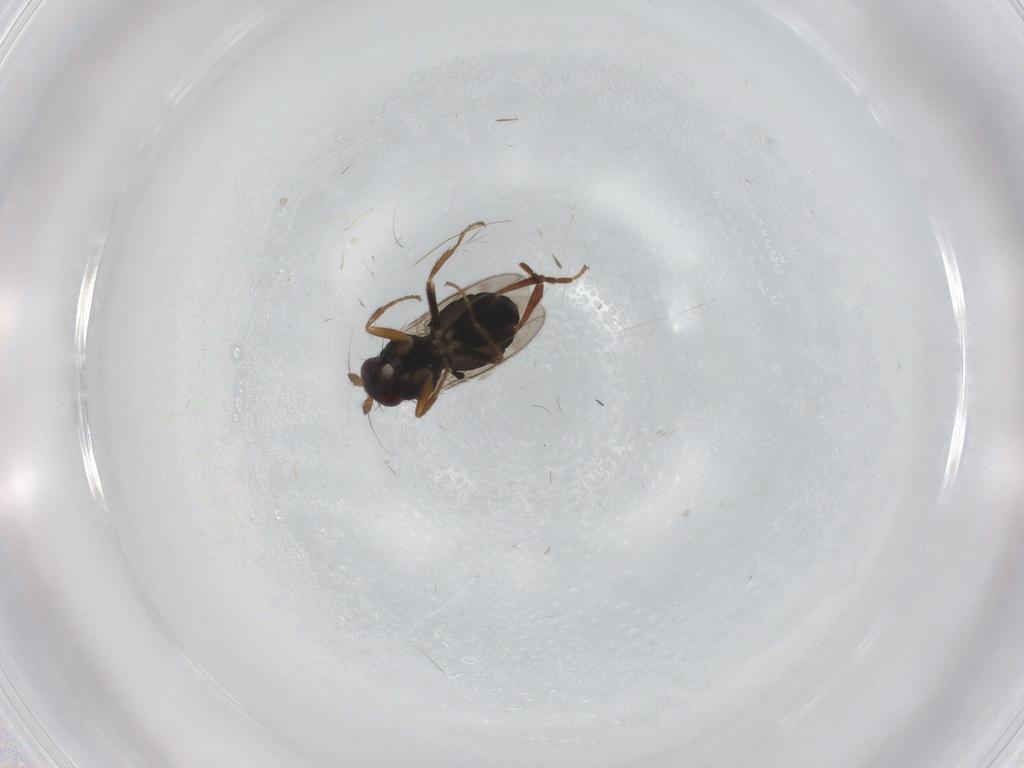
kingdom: Animalia
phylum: Arthropoda
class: Insecta
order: Diptera
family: Sphaeroceridae
